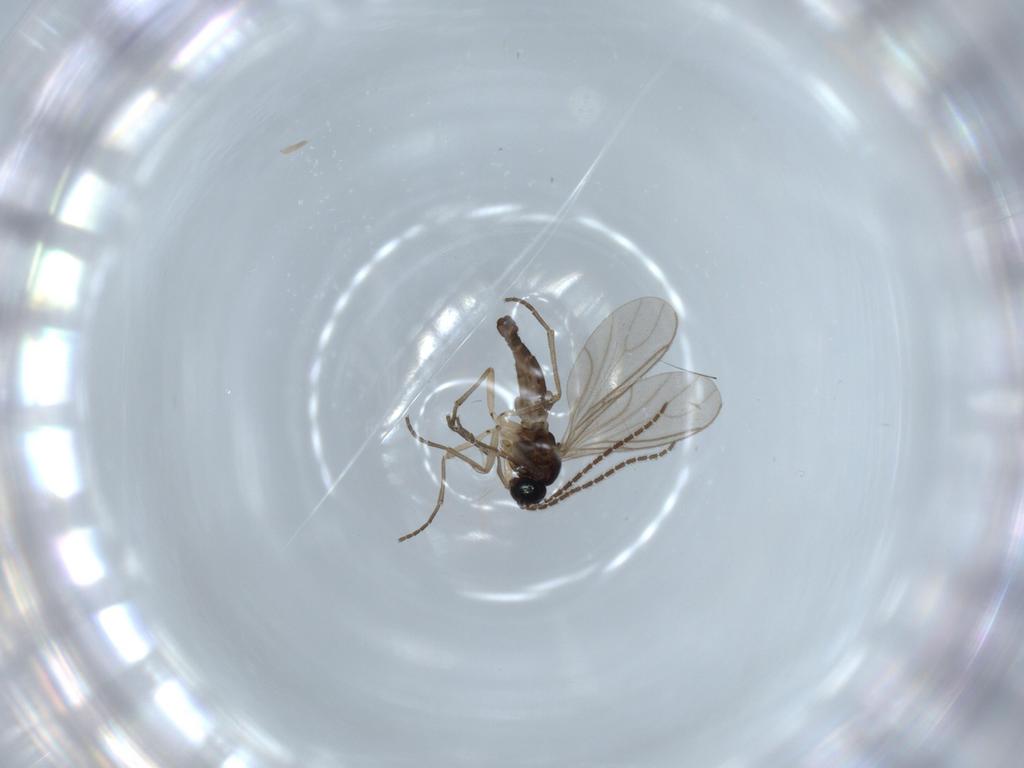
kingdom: Animalia
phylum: Arthropoda
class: Insecta
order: Diptera
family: Sciaridae
